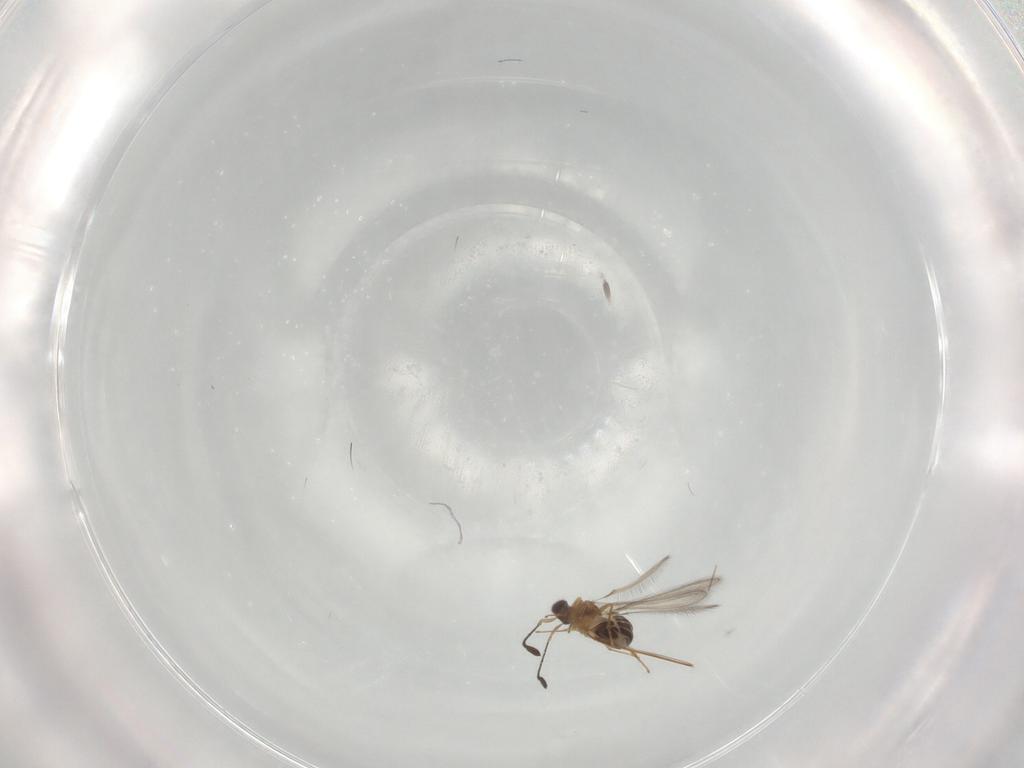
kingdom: Animalia
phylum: Arthropoda
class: Insecta
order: Hymenoptera
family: Mymaridae
